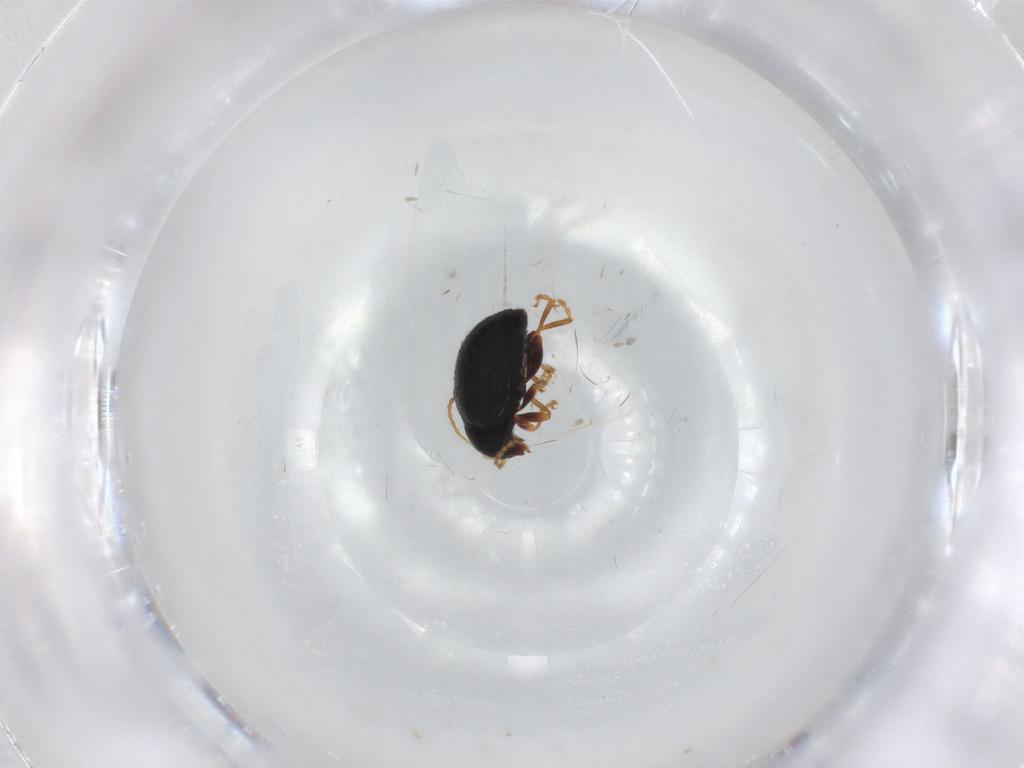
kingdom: Animalia
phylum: Arthropoda
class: Insecta
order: Coleoptera
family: Chrysomelidae
